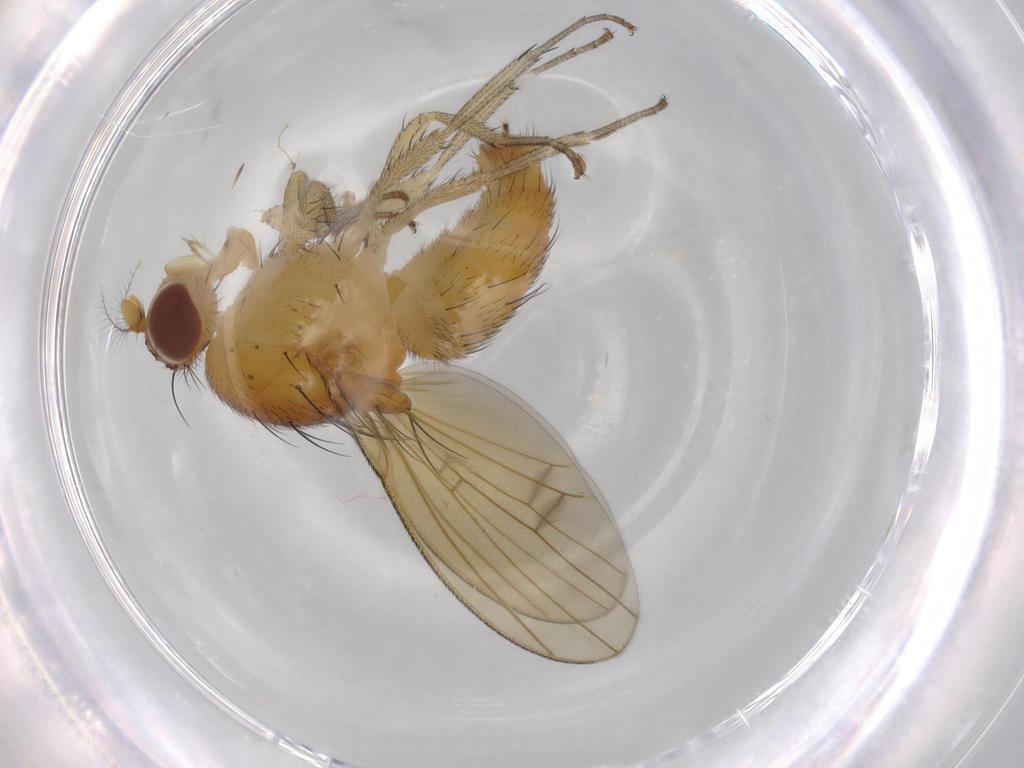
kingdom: Animalia
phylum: Arthropoda
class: Insecta
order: Diptera
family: Lauxaniidae
